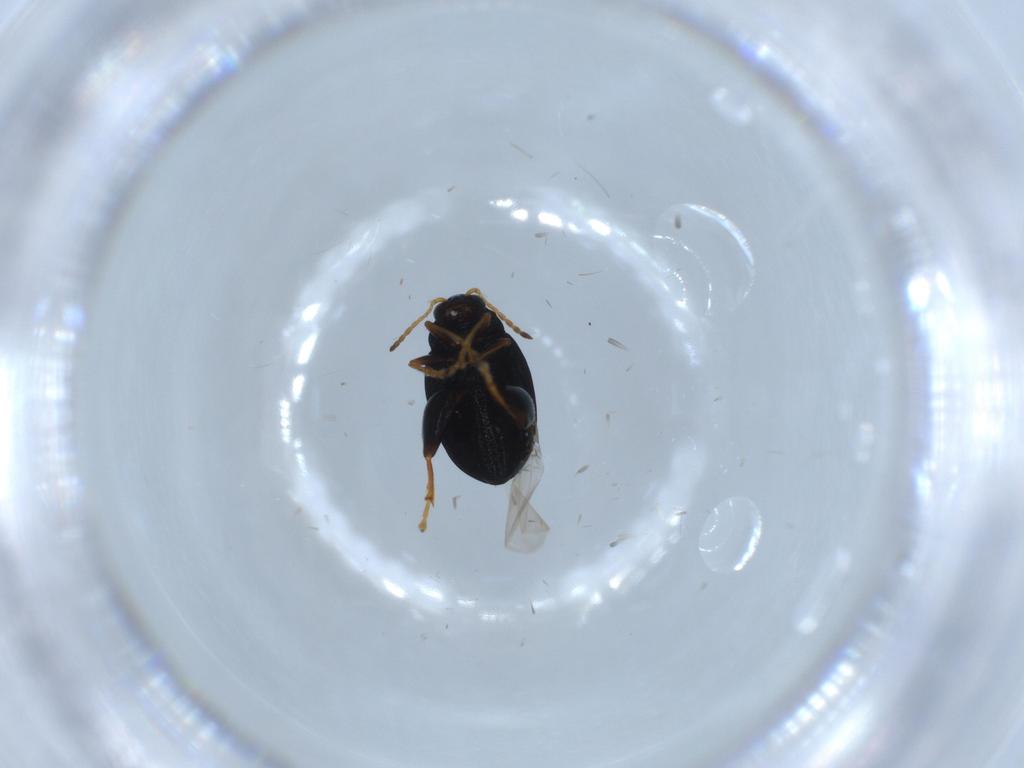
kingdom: Animalia
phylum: Arthropoda
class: Insecta
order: Coleoptera
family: Chrysomelidae
